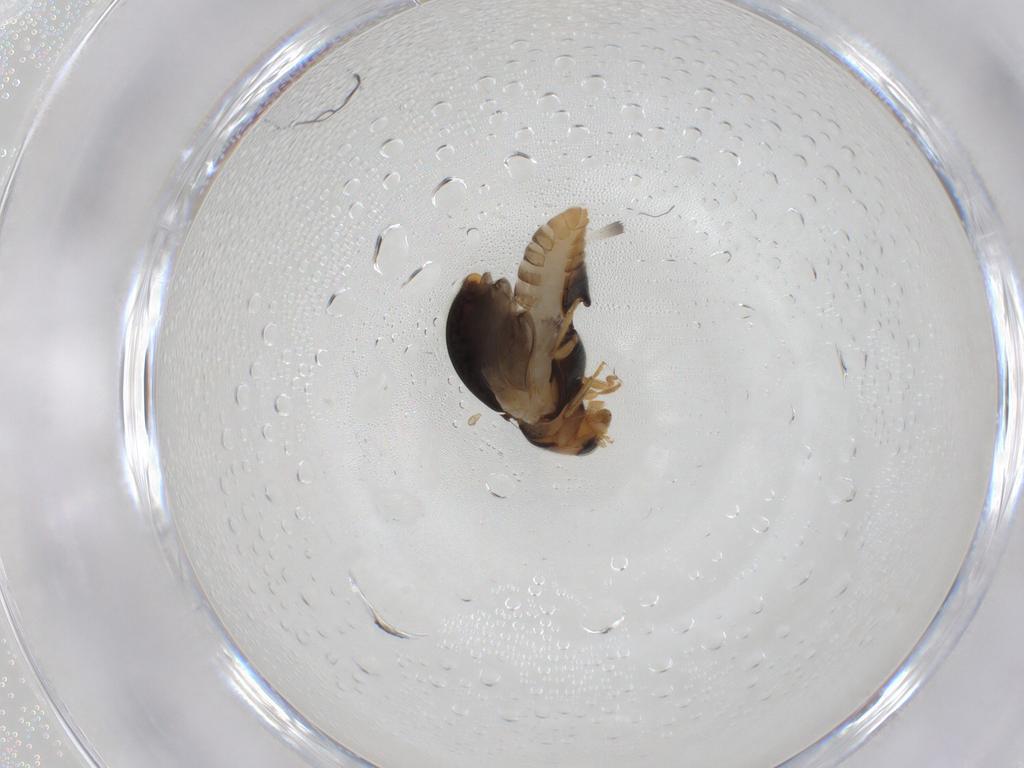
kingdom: Animalia
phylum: Arthropoda
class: Insecta
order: Coleoptera
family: Coccinellidae
